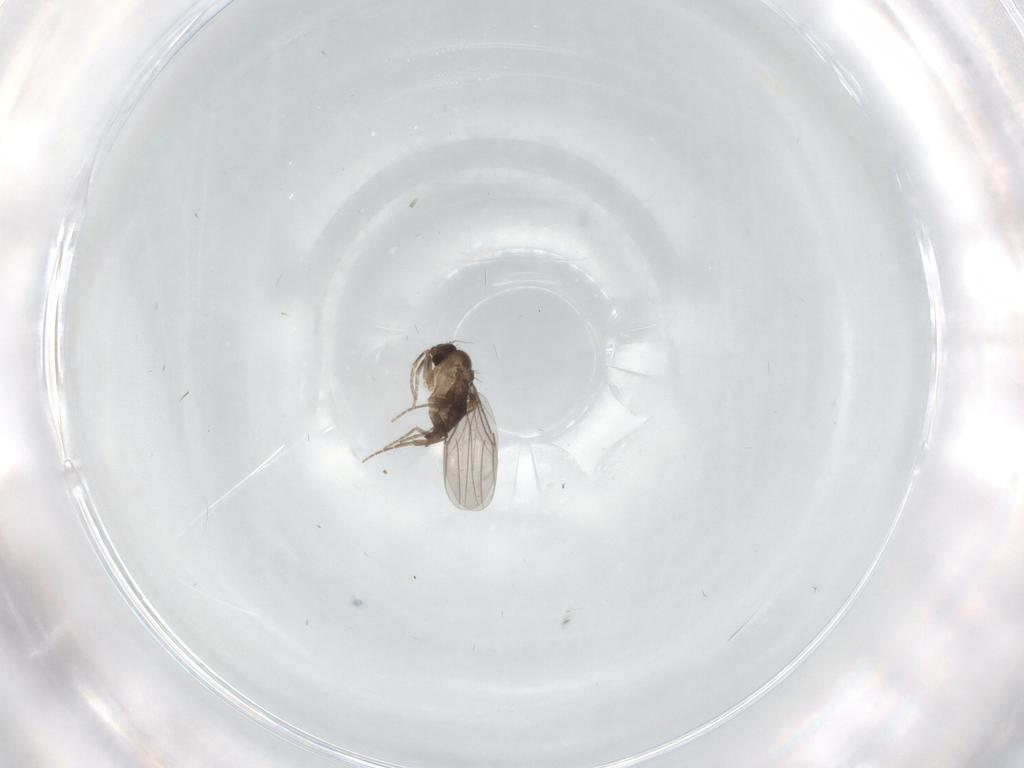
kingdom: Animalia
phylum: Arthropoda
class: Insecta
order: Diptera
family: Phoridae
